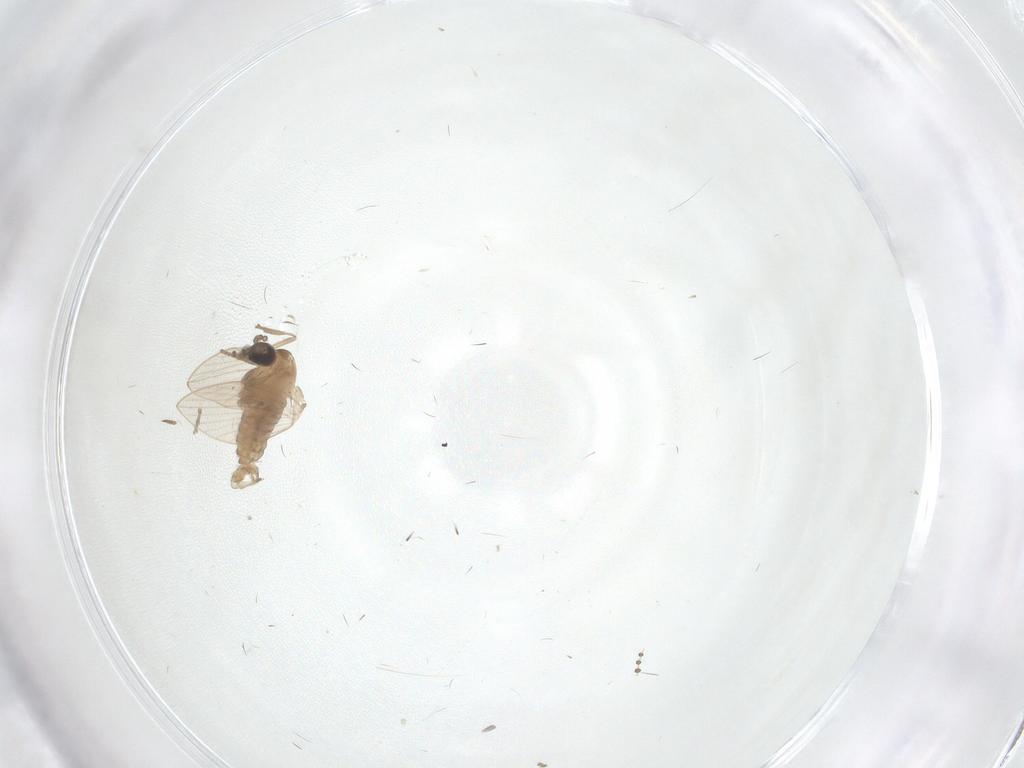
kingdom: Animalia
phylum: Arthropoda
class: Insecta
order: Diptera
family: Psychodidae
